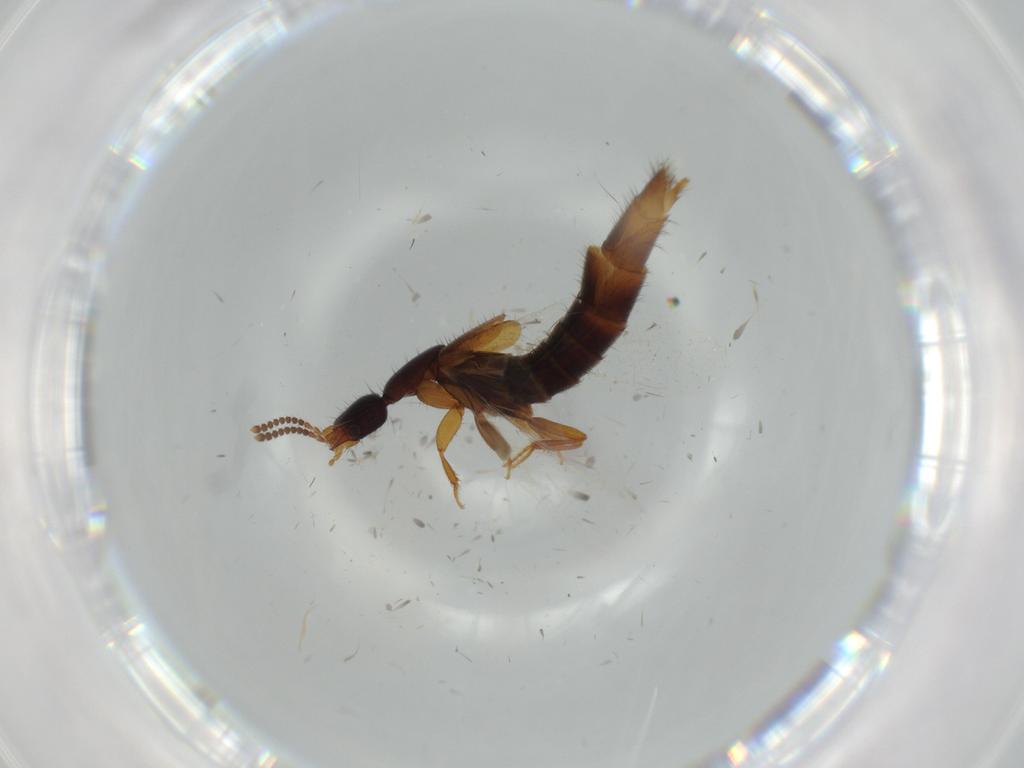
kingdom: Animalia
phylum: Arthropoda
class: Insecta
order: Coleoptera
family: Staphylinidae
